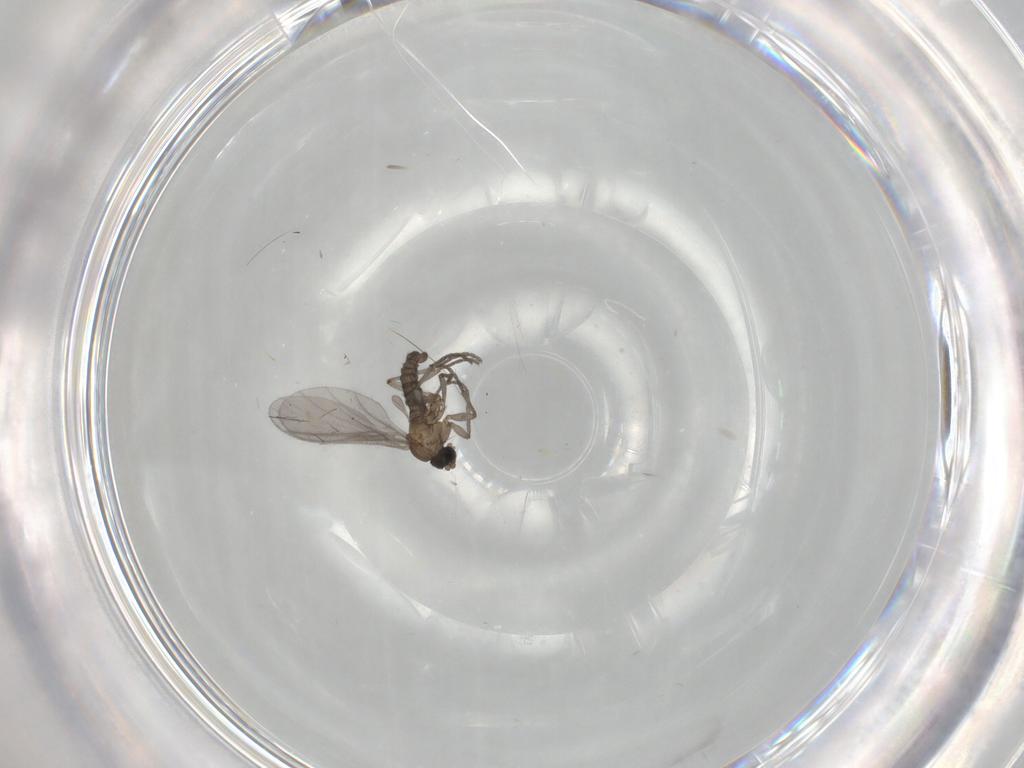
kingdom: Animalia
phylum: Arthropoda
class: Insecta
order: Diptera
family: Sciaridae
